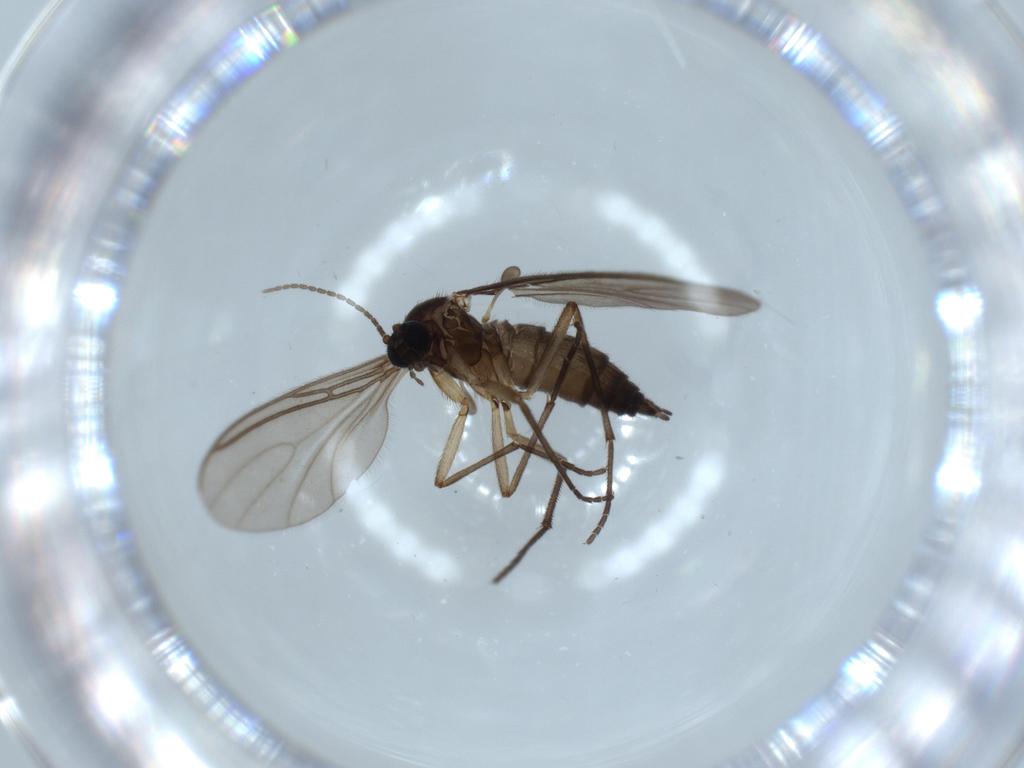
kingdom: Animalia
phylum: Arthropoda
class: Insecta
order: Diptera
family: Sciaridae
